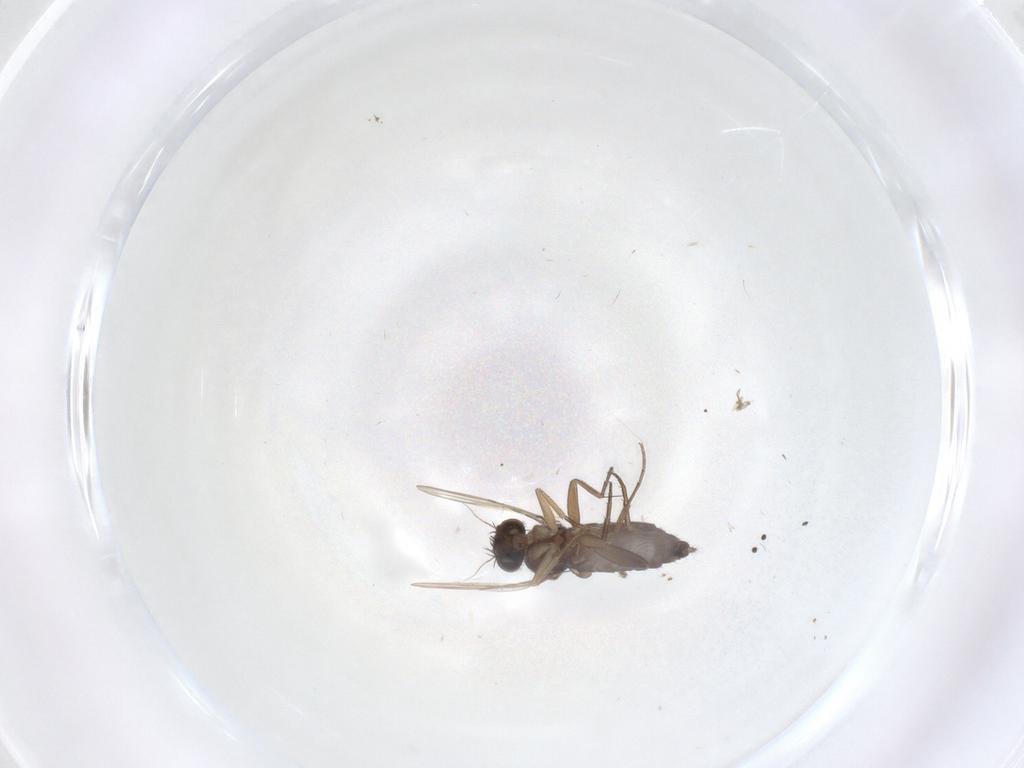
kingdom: Animalia
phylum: Arthropoda
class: Insecta
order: Diptera
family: Phoridae
